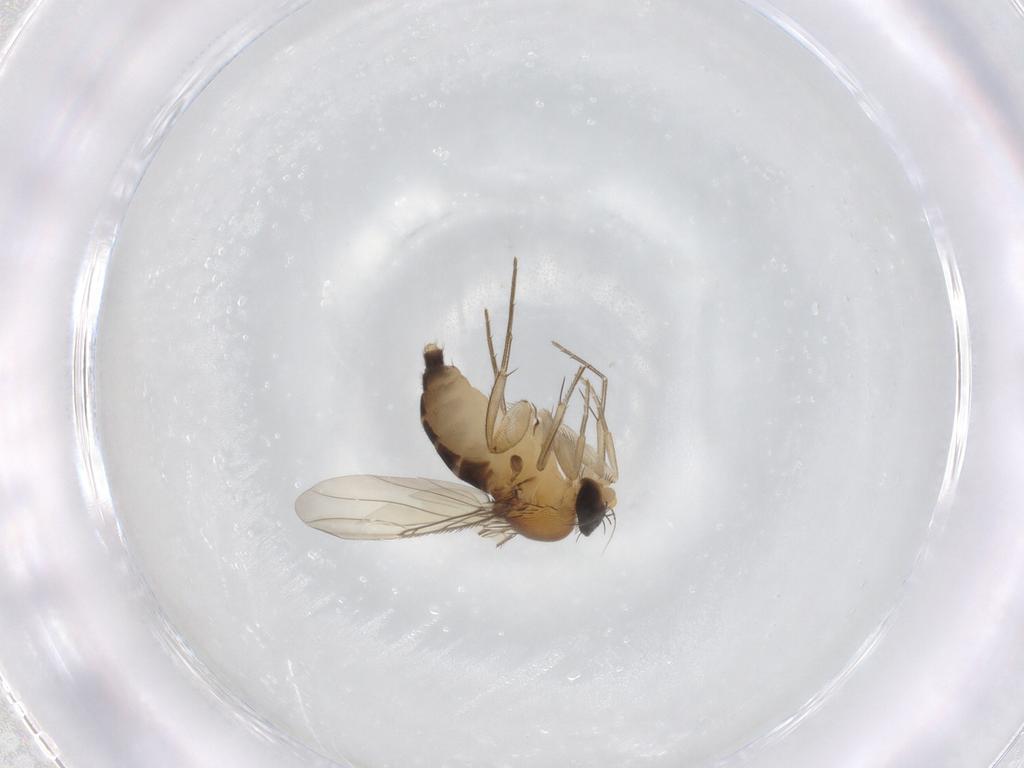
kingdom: Animalia
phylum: Arthropoda
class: Insecta
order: Diptera
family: Phoridae
